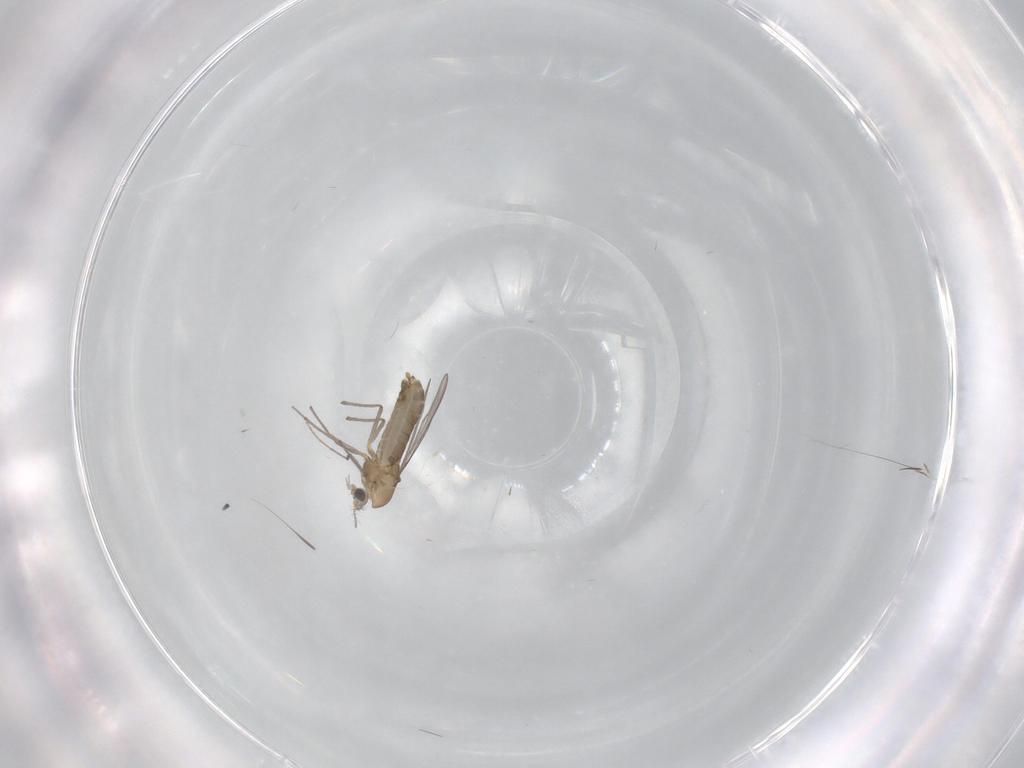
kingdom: Animalia
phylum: Arthropoda
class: Insecta
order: Diptera
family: Chironomidae
